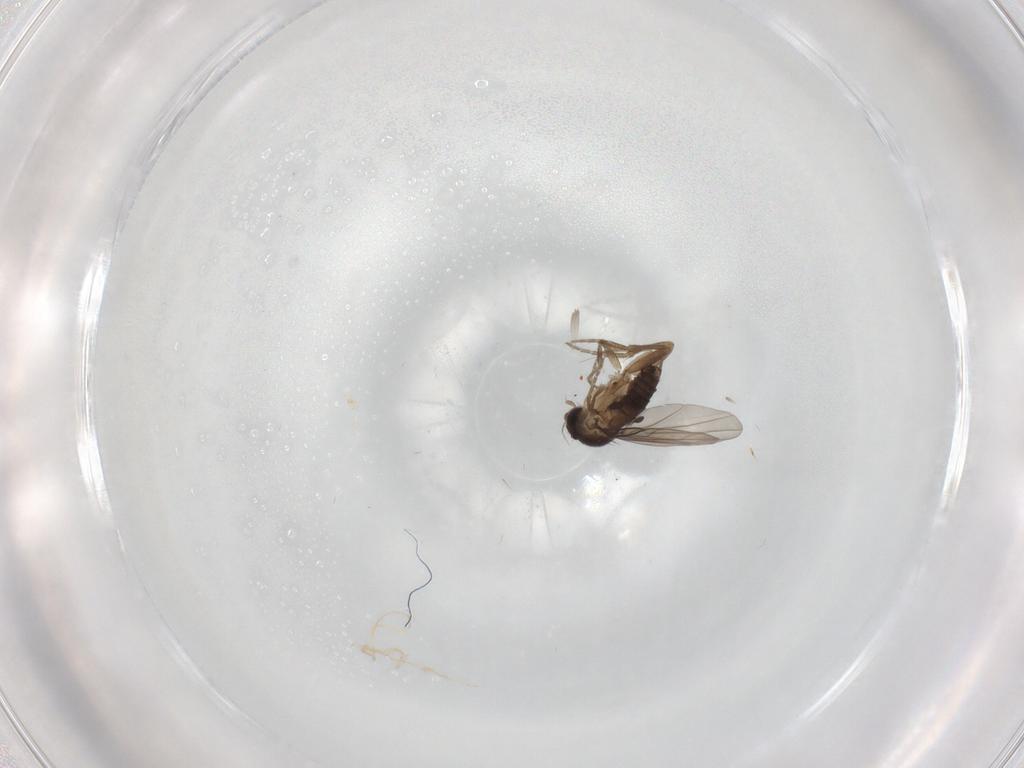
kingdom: Animalia
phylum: Arthropoda
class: Insecta
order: Diptera
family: Phoridae
